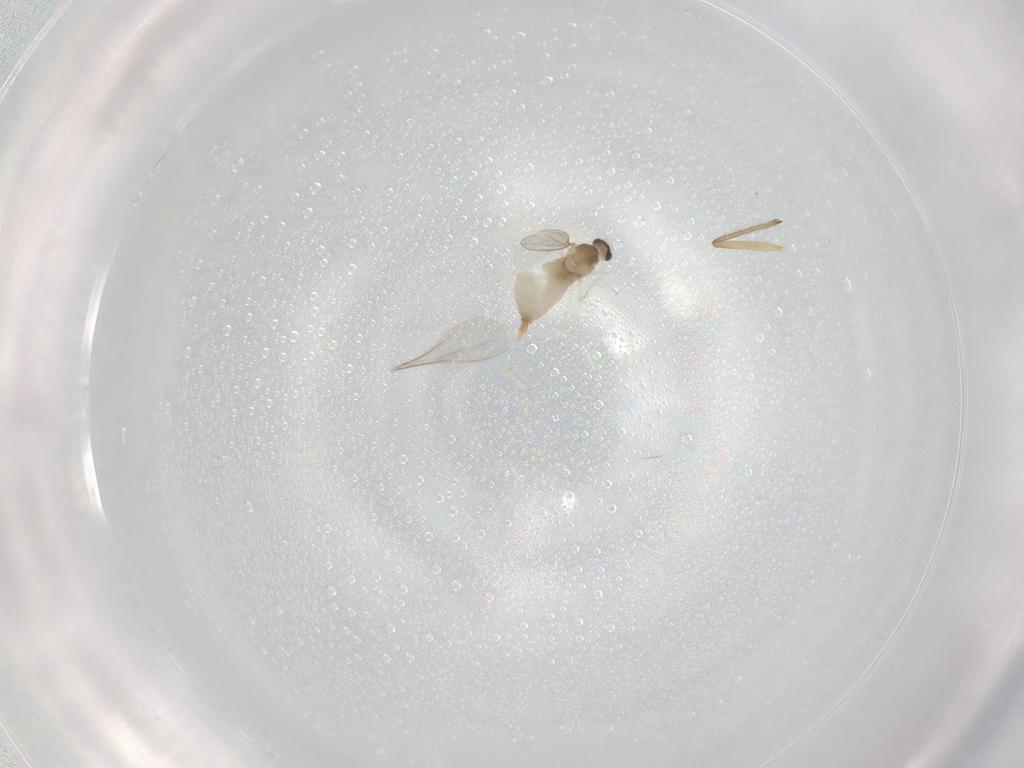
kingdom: Animalia
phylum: Arthropoda
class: Insecta
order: Diptera
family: Cecidomyiidae
